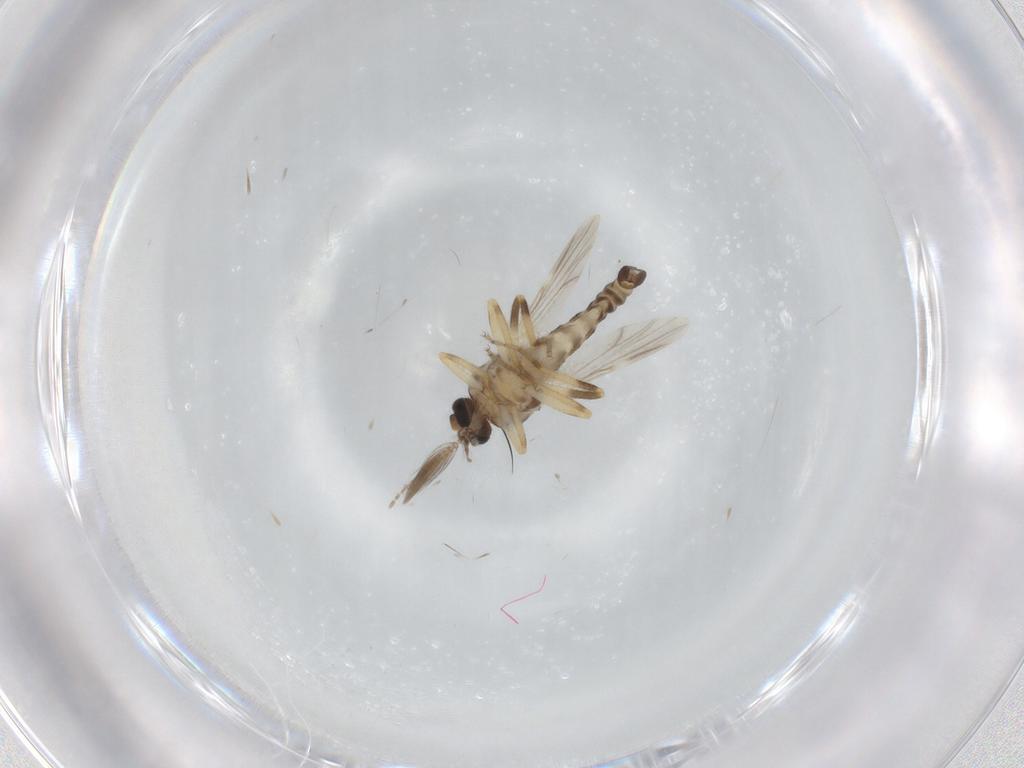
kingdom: Animalia
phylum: Arthropoda
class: Insecta
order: Diptera
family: Ceratopogonidae
